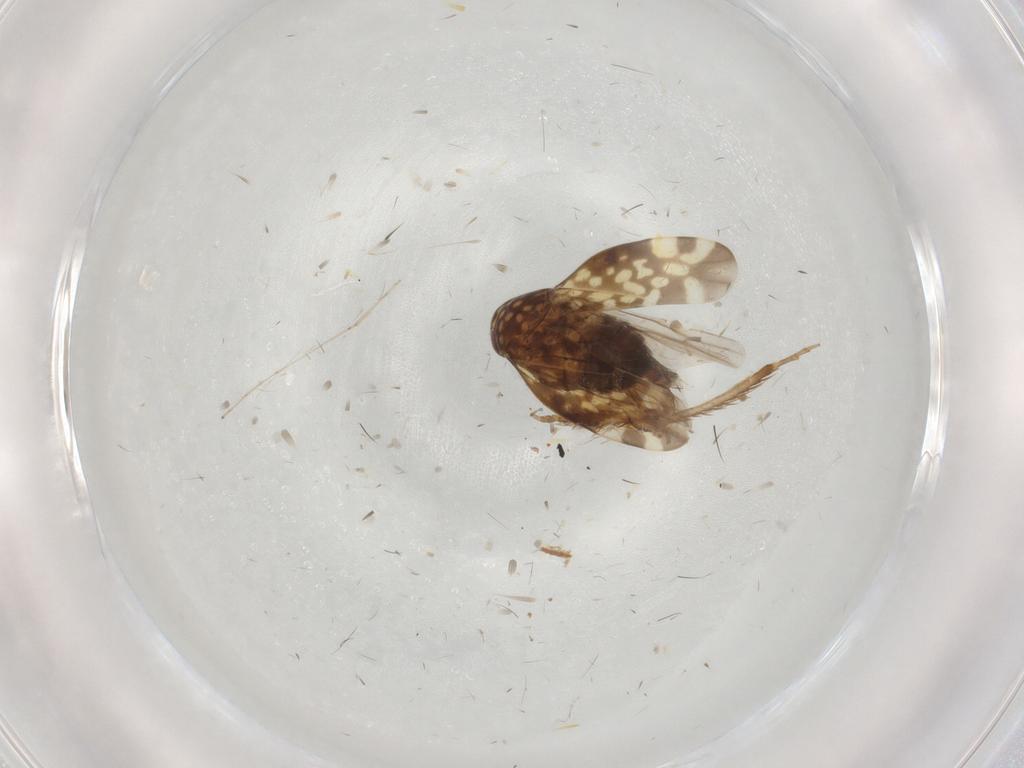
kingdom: Animalia
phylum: Arthropoda
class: Insecta
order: Hemiptera
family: Cicadellidae
